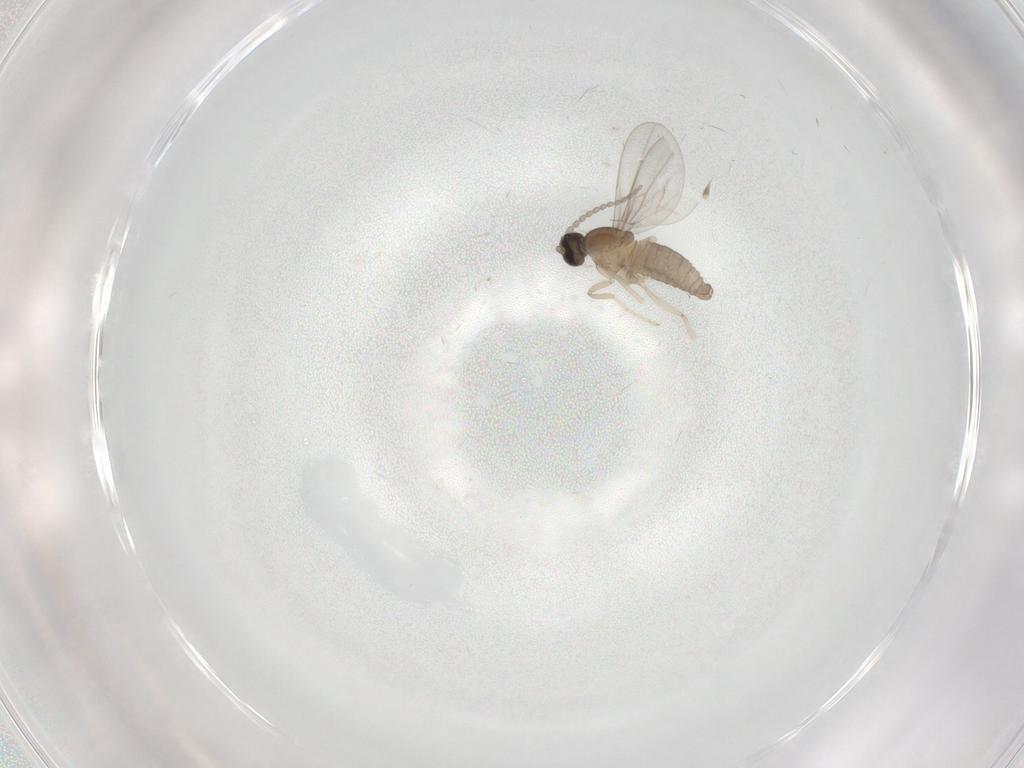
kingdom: Animalia
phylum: Arthropoda
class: Insecta
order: Diptera
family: Cecidomyiidae
